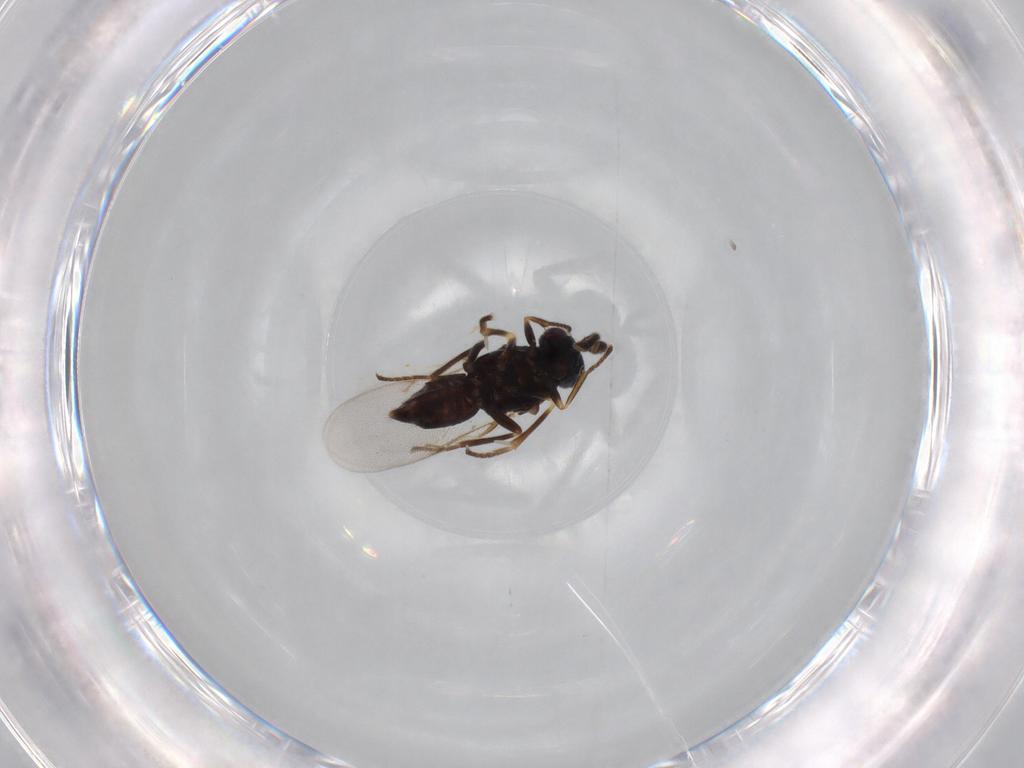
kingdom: Animalia
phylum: Arthropoda
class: Insecta
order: Hymenoptera
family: Encyrtidae
